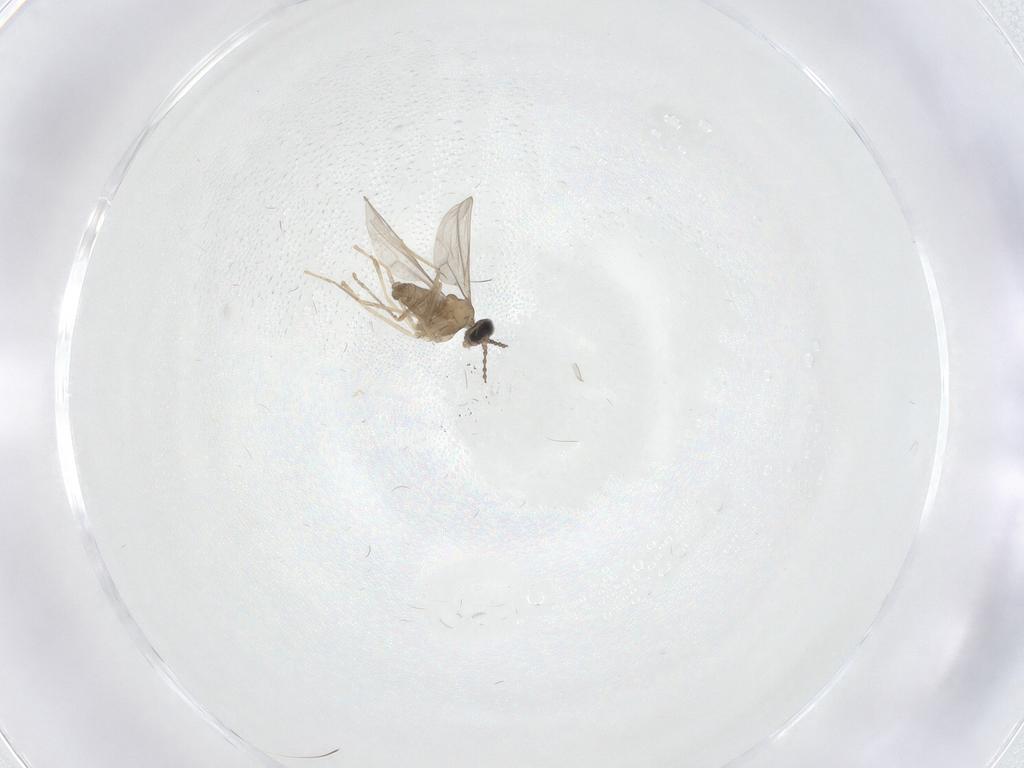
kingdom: Animalia
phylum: Arthropoda
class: Insecta
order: Diptera
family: Cecidomyiidae
